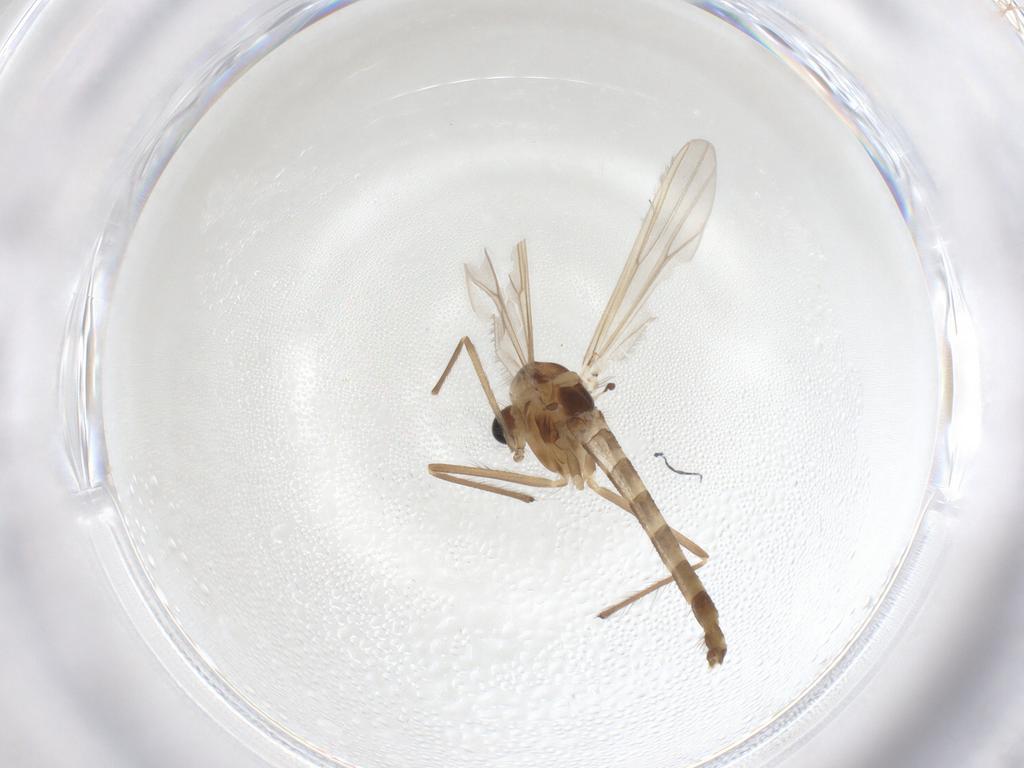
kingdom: Animalia
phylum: Arthropoda
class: Insecta
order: Diptera
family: Chironomidae
